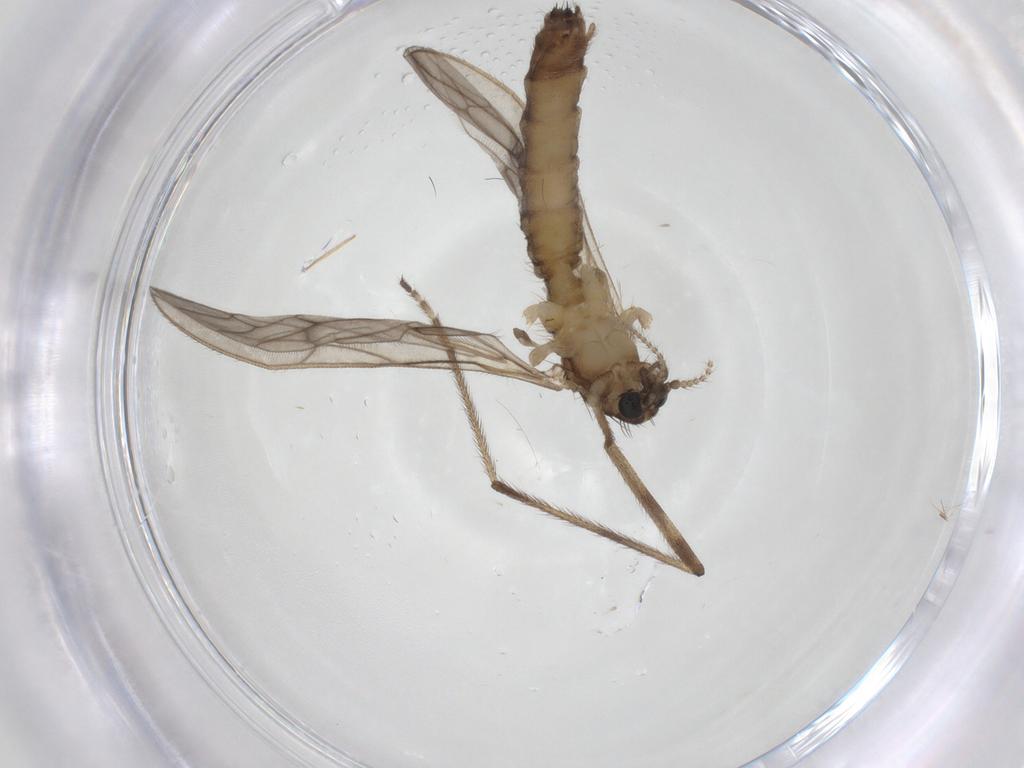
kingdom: Animalia
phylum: Arthropoda
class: Insecta
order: Diptera
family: Limoniidae
